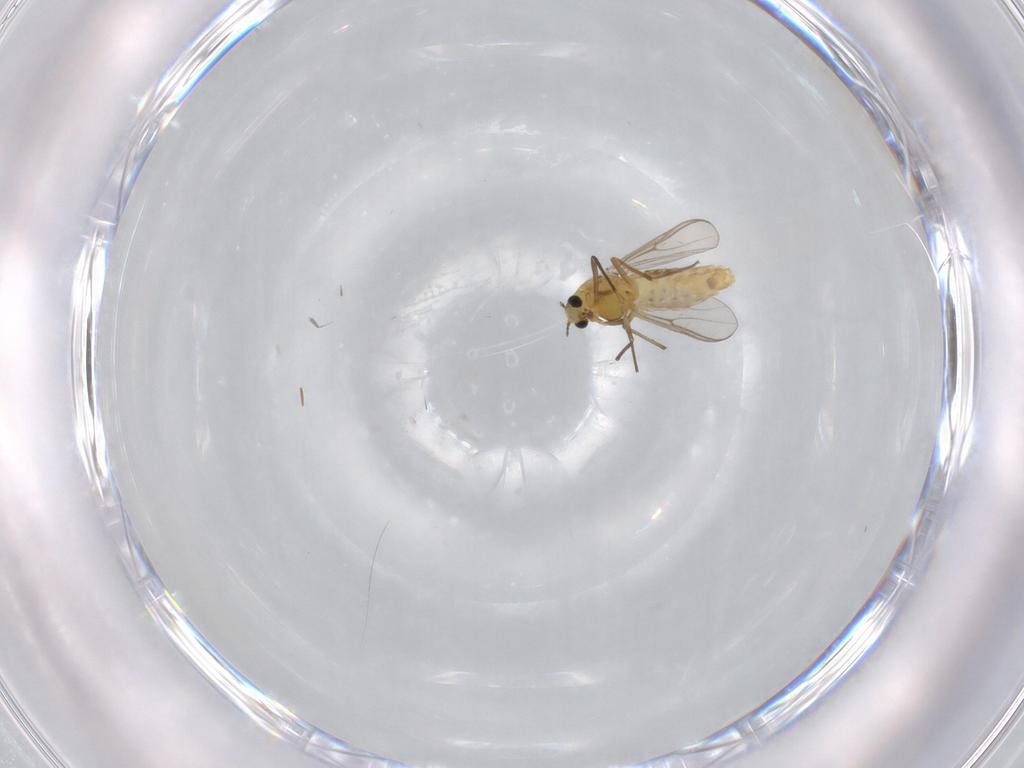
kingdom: Animalia
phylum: Arthropoda
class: Insecta
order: Diptera
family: Chironomidae
